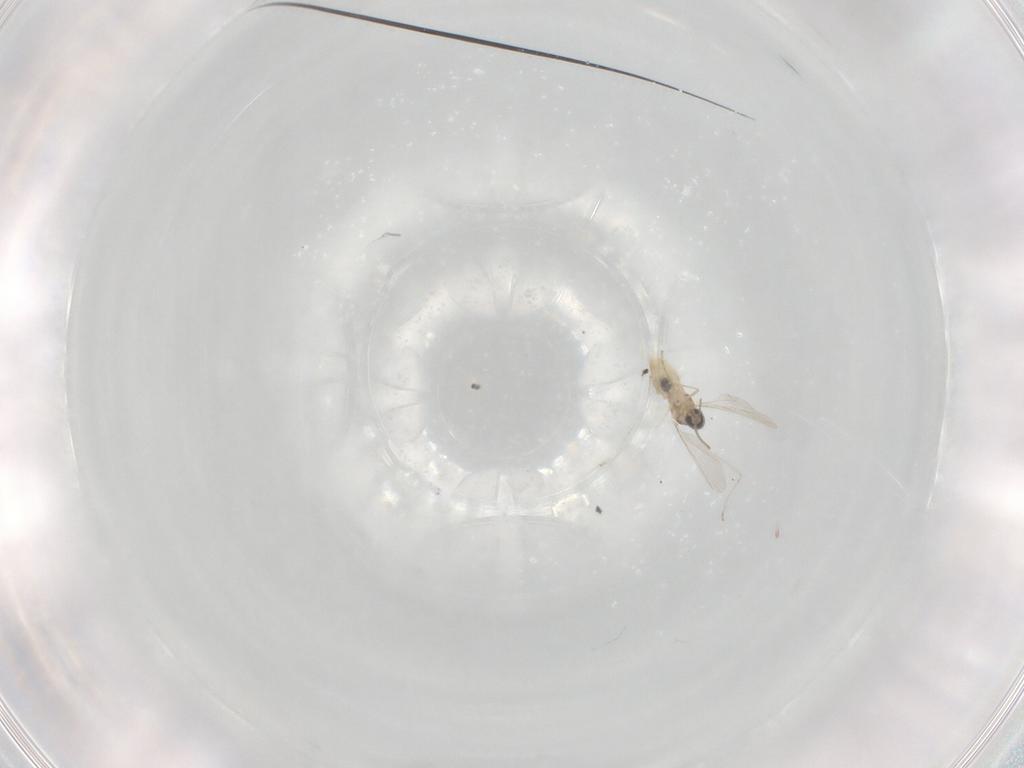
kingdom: Animalia
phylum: Arthropoda
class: Insecta
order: Diptera
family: Cecidomyiidae
